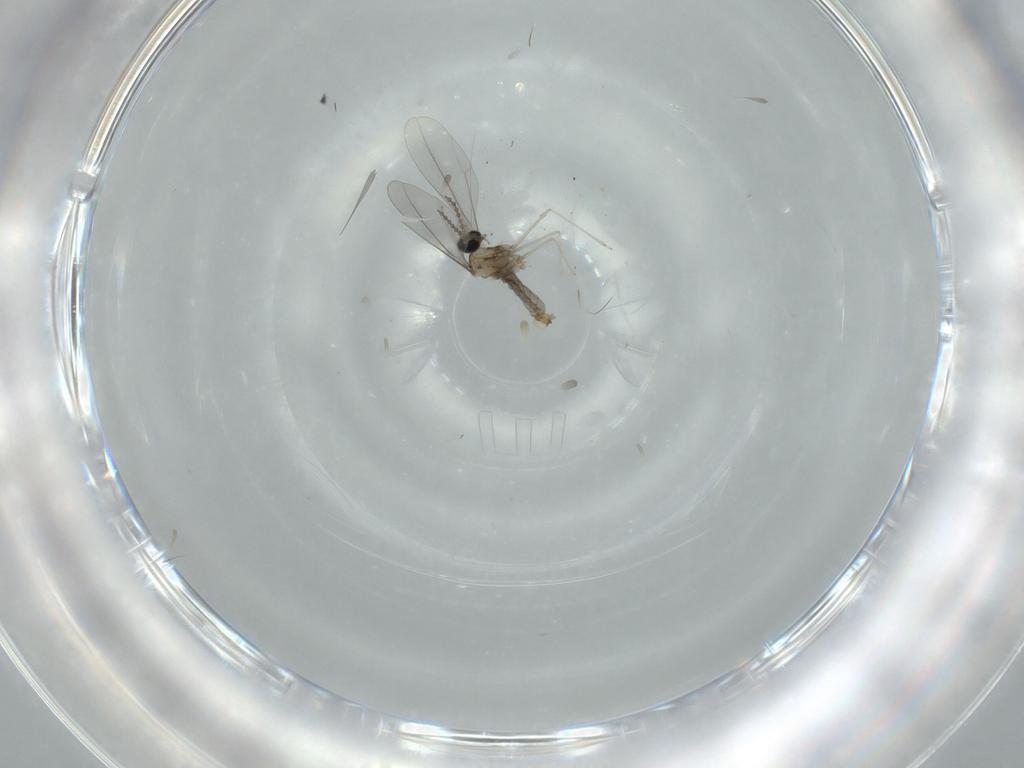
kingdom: Animalia
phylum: Arthropoda
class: Insecta
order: Diptera
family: Cecidomyiidae
